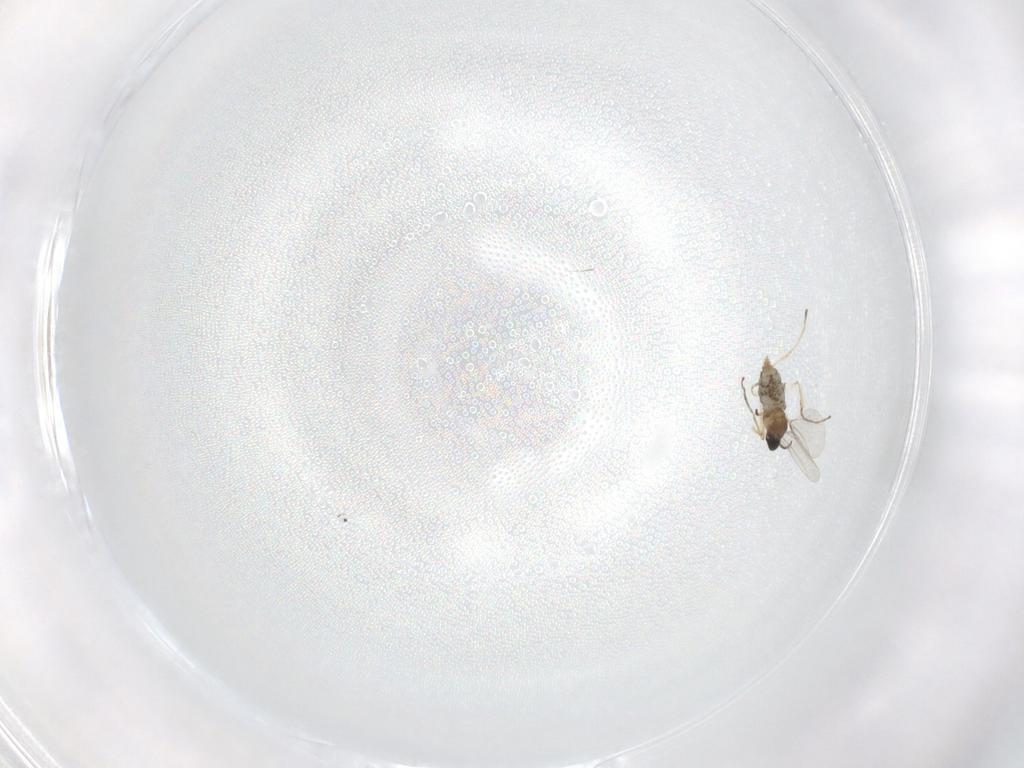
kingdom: Animalia
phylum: Arthropoda
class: Insecta
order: Diptera
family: Cecidomyiidae
